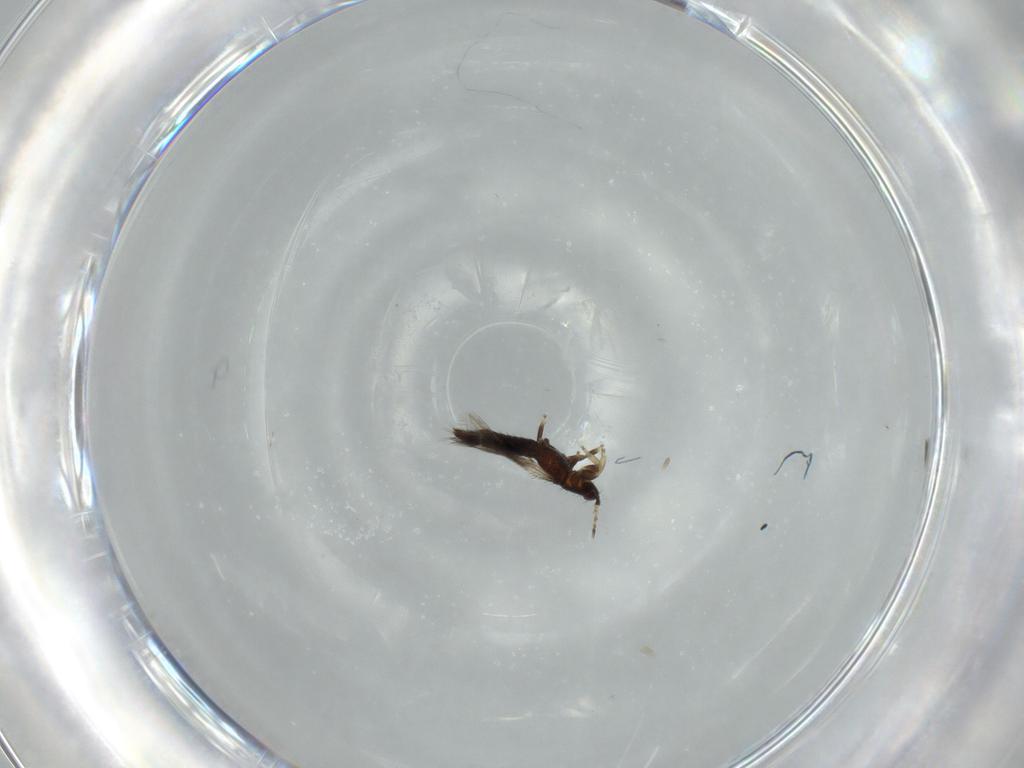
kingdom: Animalia
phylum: Arthropoda
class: Insecta
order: Thysanoptera
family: Thripidae
